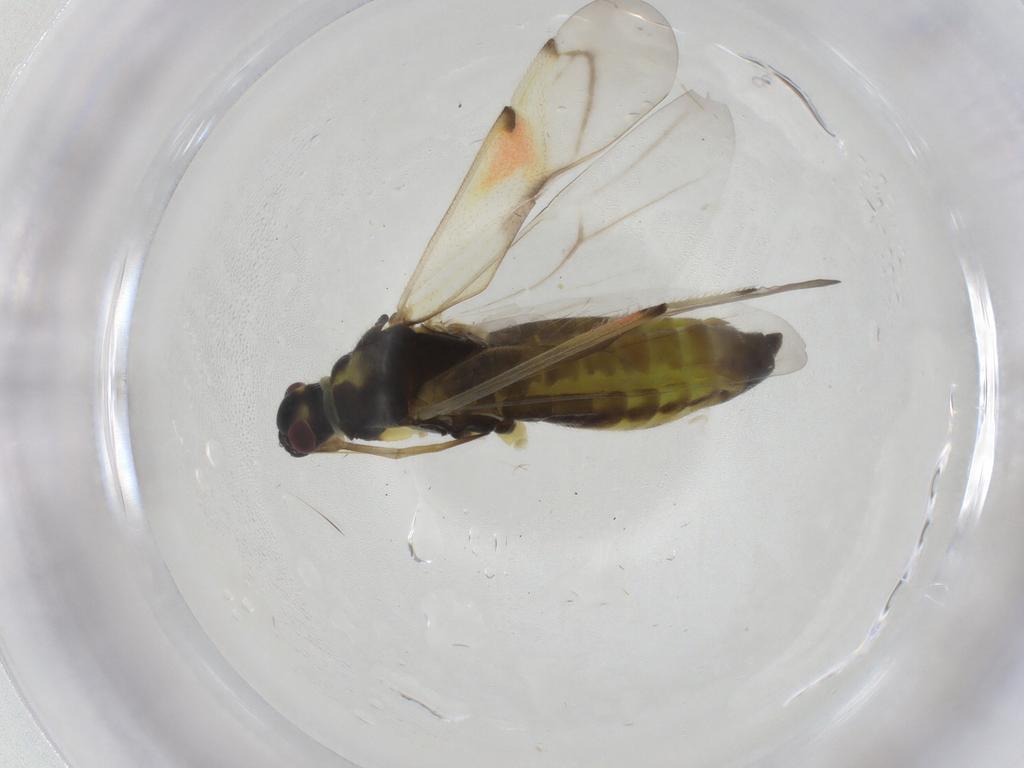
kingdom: Animalia
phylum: Arthropoda
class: Insecta
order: Hemiptera
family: Miridae
